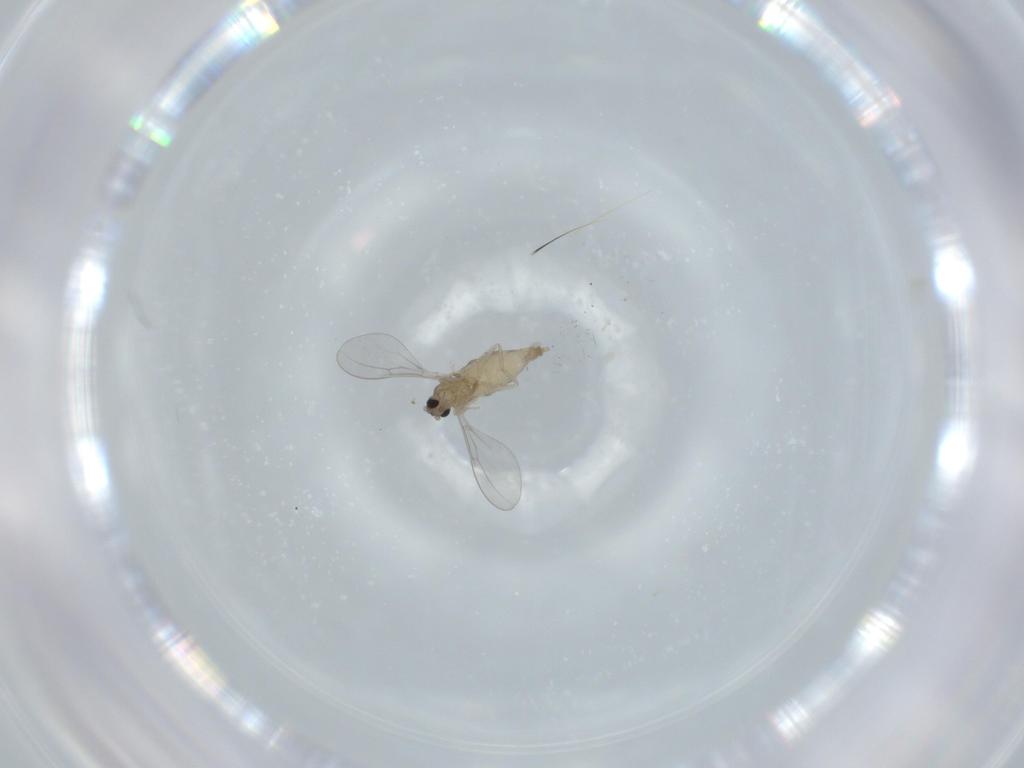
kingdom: Animalia
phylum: Arthropoda
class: Insecta
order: Diptera
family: Cecidomyiidae
